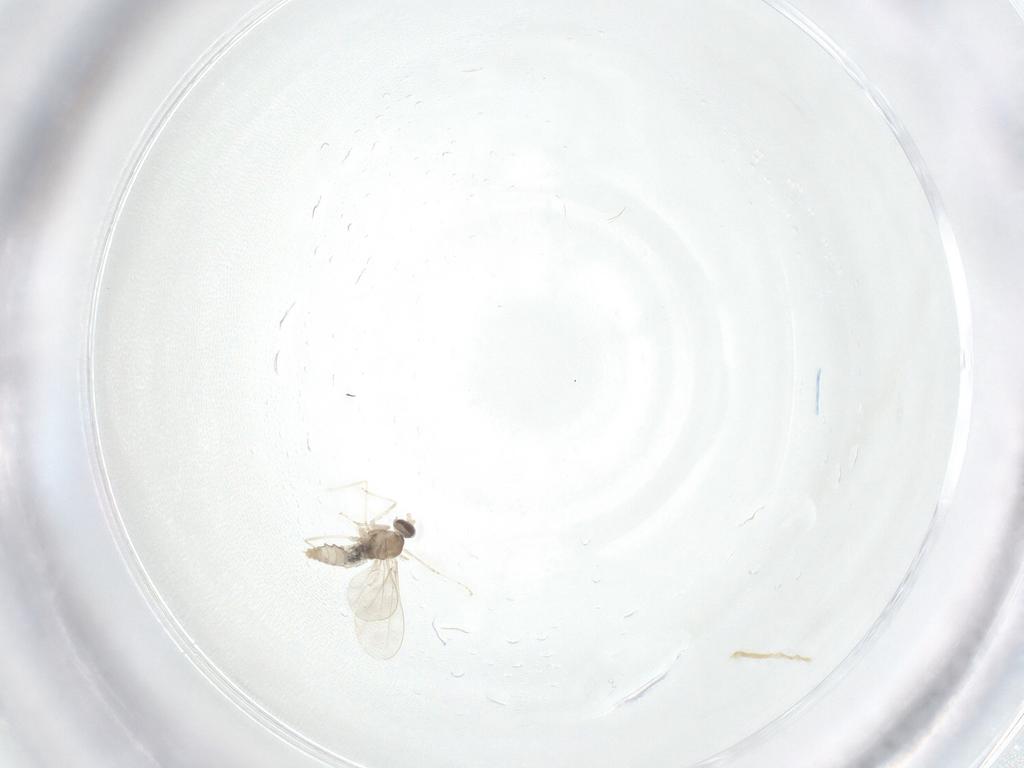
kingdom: Animalia
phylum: Arthropoda
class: Insecta
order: Diptera
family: Cecidomyiidae
